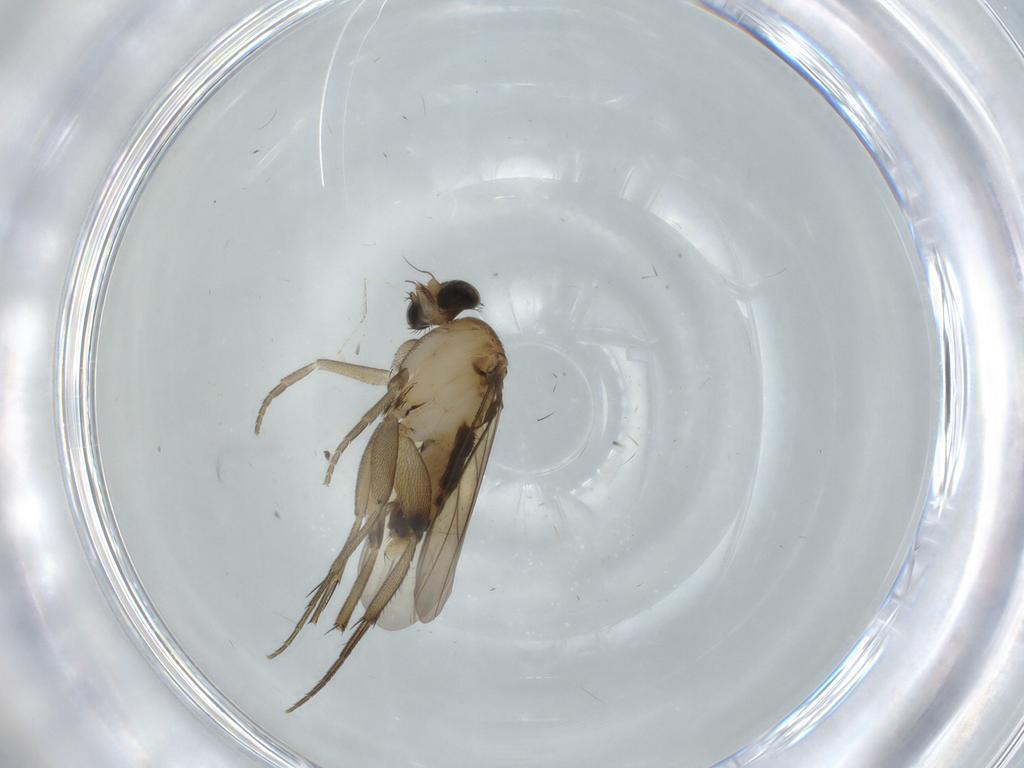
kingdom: Animalia
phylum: Arthropoda
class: Insecta
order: Diptera
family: Phoridae
